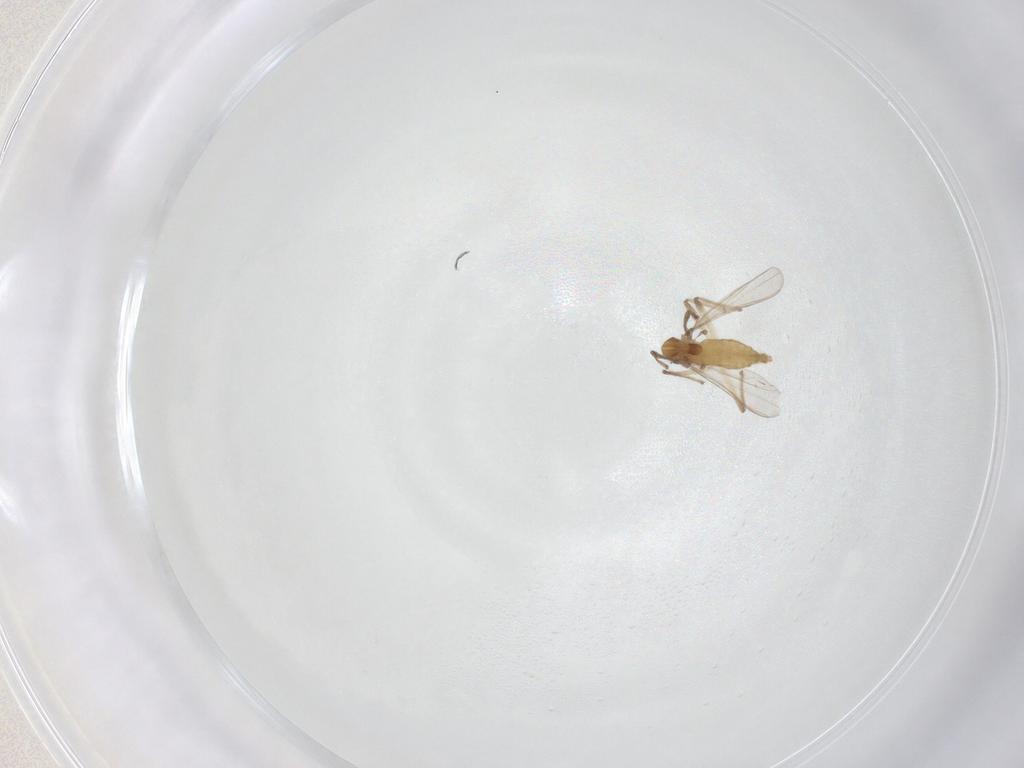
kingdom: Animalia
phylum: Arthropoda
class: Insecta
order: Diptera
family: Chironomidae
